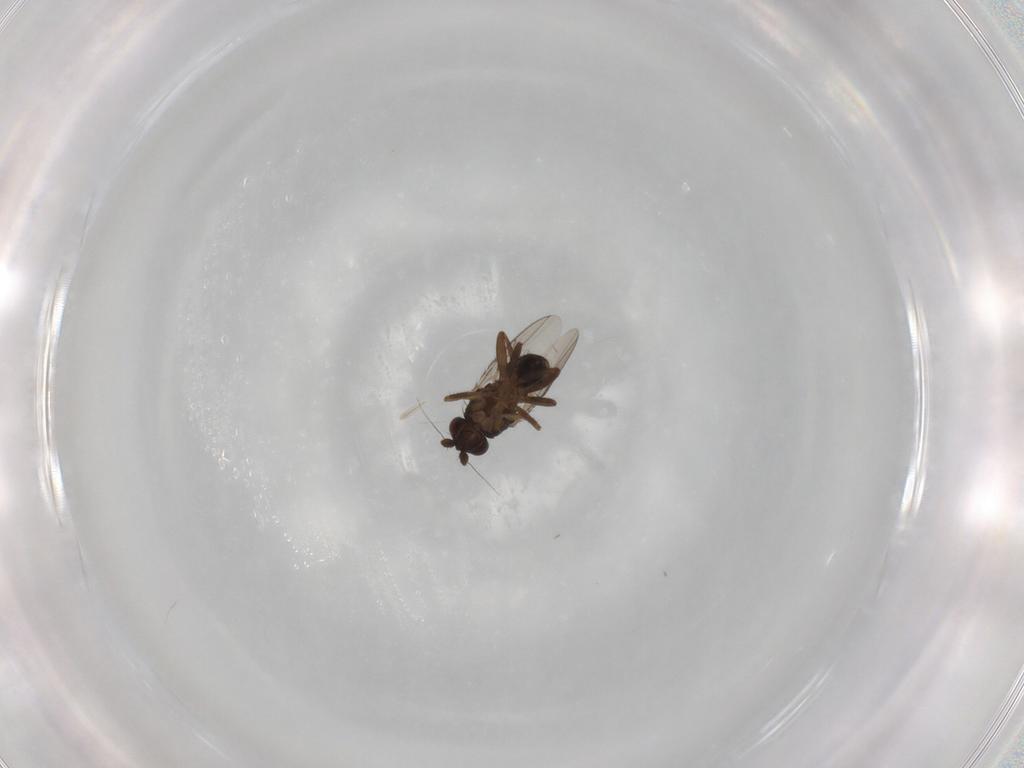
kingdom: Animalia
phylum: Arthropoda
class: Insecta
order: Diptera
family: Sphaeroceridae
